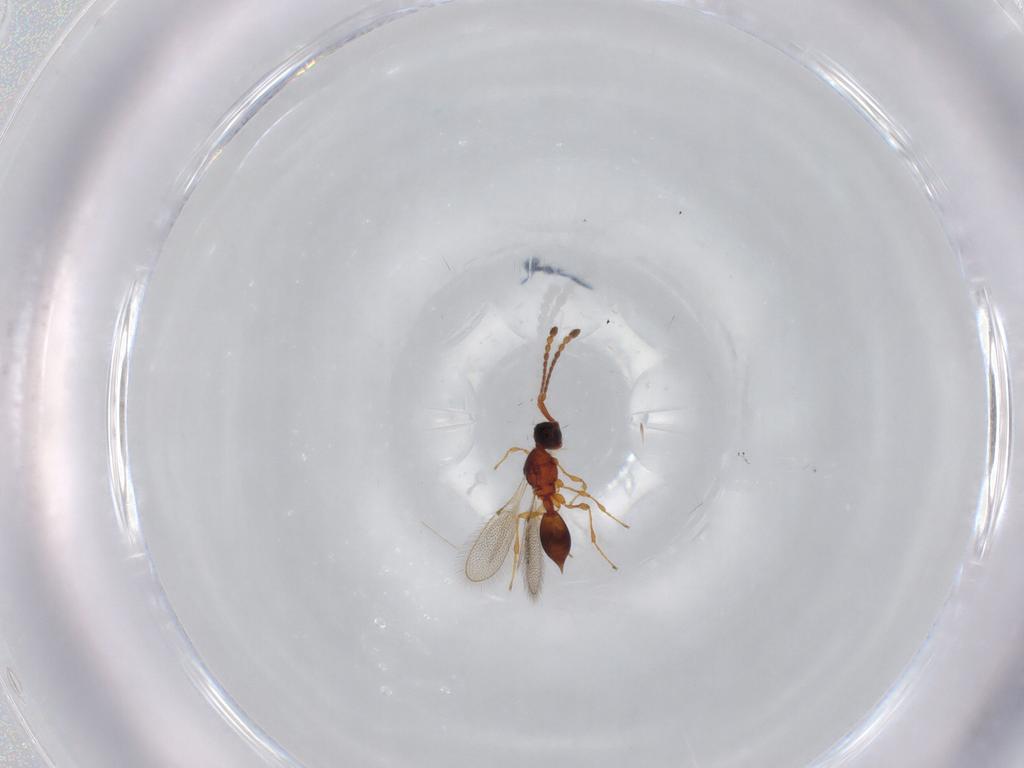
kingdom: Animalia
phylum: Arthropoda
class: Insecta
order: Hymenoptera
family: Diapriidae
